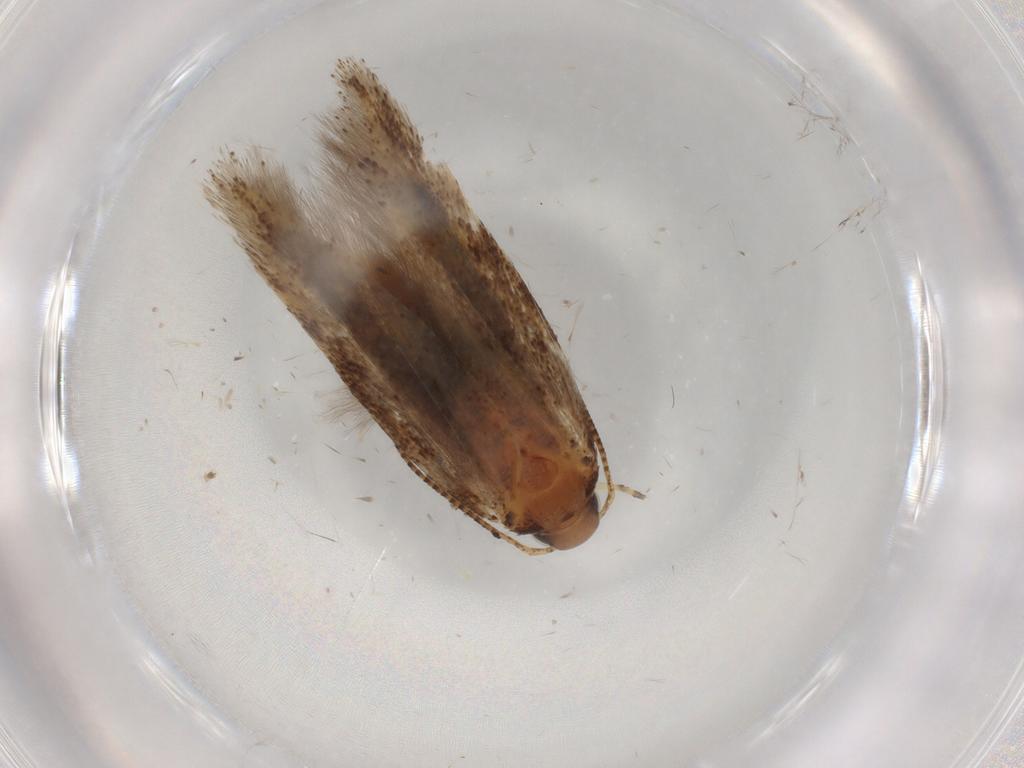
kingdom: Animalia
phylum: Arthropoda
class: Insecta
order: Lepidoptera
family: Gelechiidae
